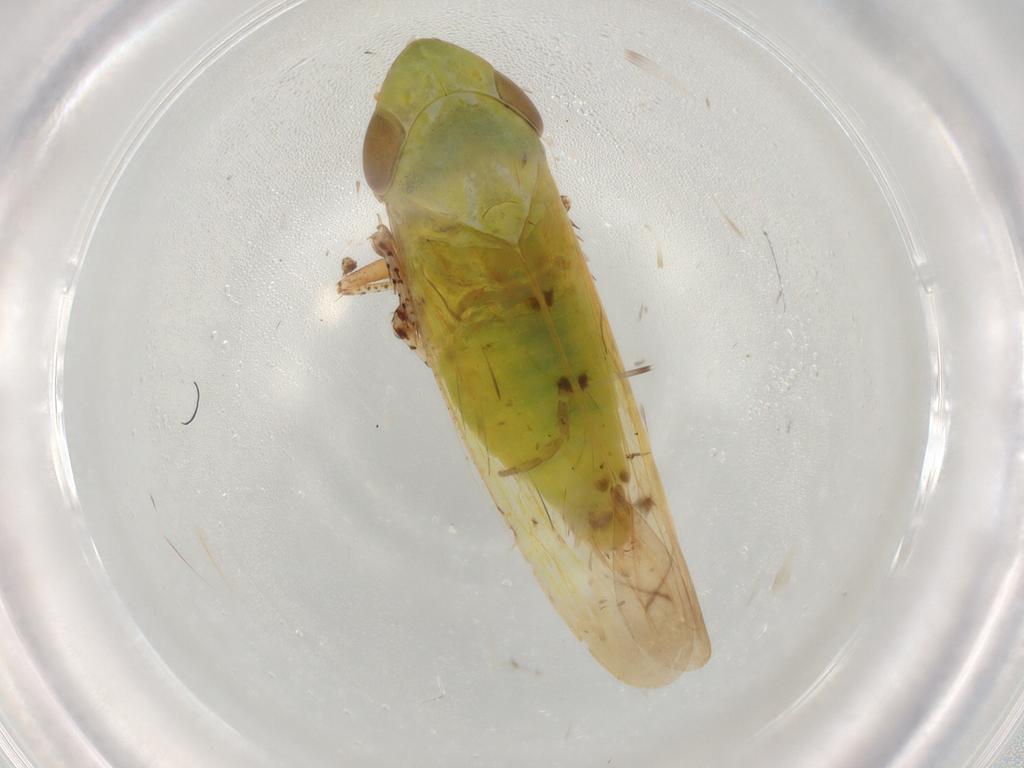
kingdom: Animalia
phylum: Arthropoda
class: Insecta
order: Hemiptera
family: Cicadellidae
